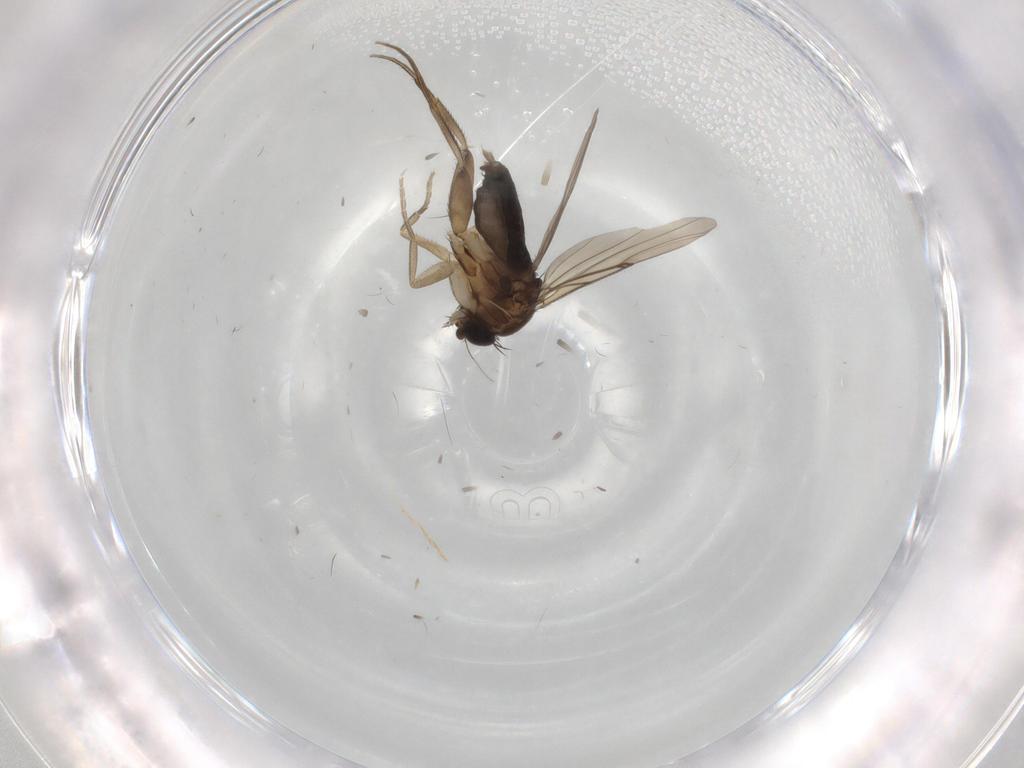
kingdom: Animalia
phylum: Arthropoda
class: Insecta
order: Diptera
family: Phoridae
